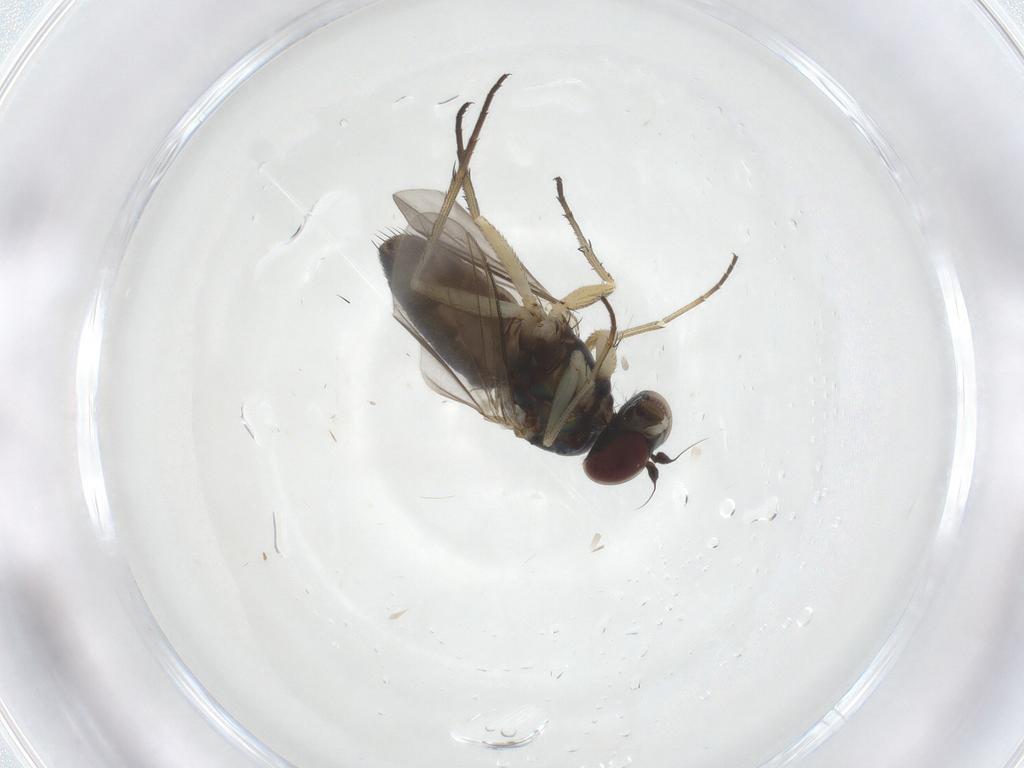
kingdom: Animalia
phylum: Arthropoda
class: Insecta
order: Diptera
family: Dolichopodidae
